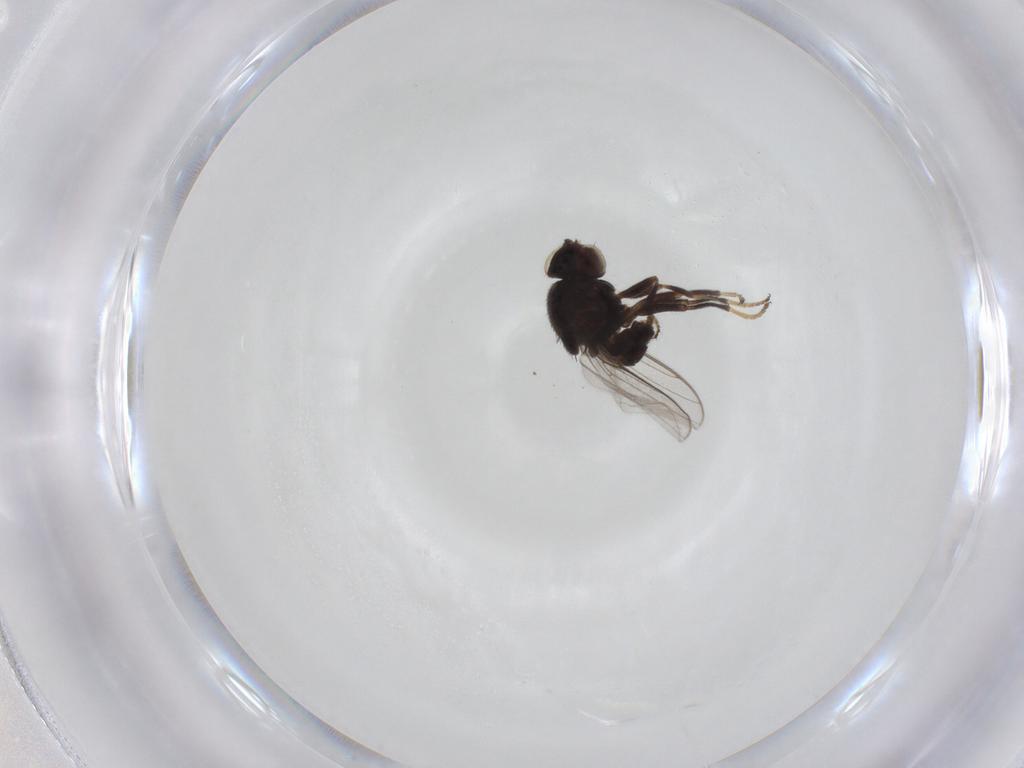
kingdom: Animalia
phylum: Arthropoda
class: Insecta
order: Diptera
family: Chloropidae
